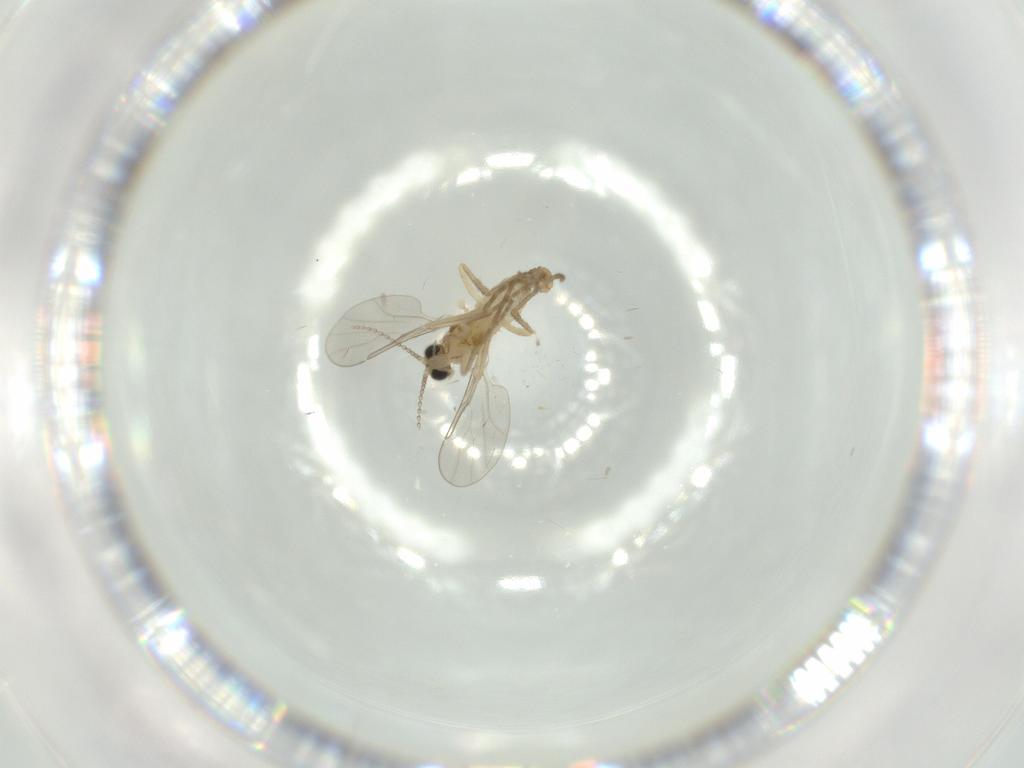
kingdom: Animalia
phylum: Arthropoda
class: Insecta
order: Diptera
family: Cecidomyiidae
